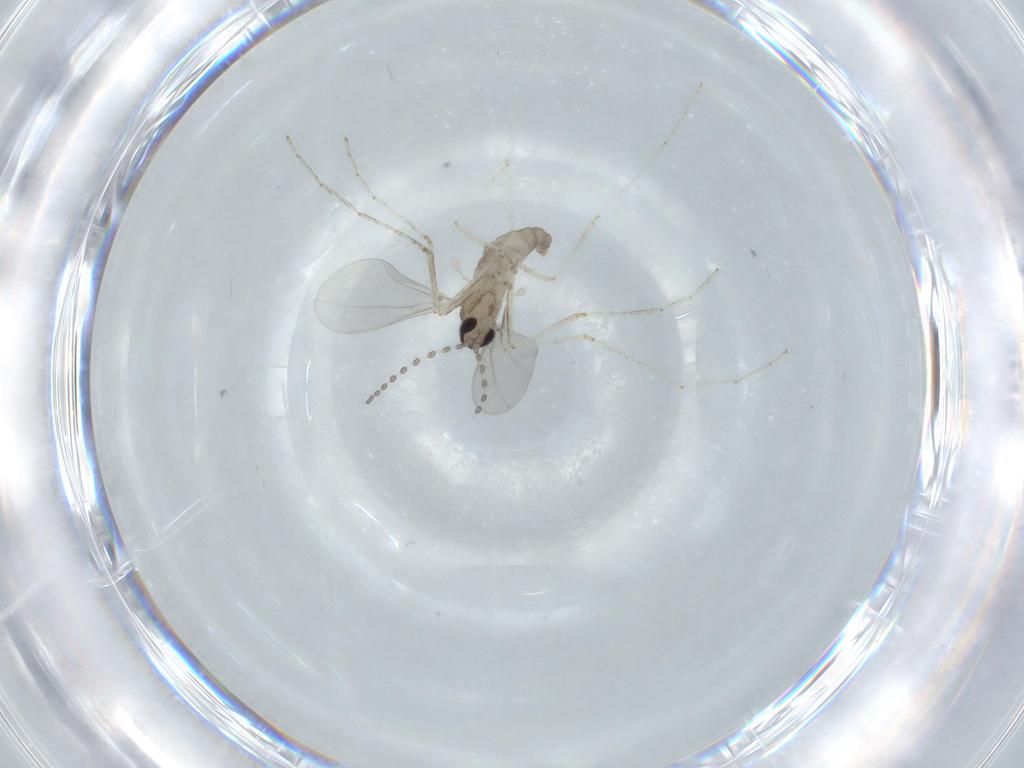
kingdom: Animalia
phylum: Arthropoda
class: Insecta
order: Diptera
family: Cecidomyiidae
